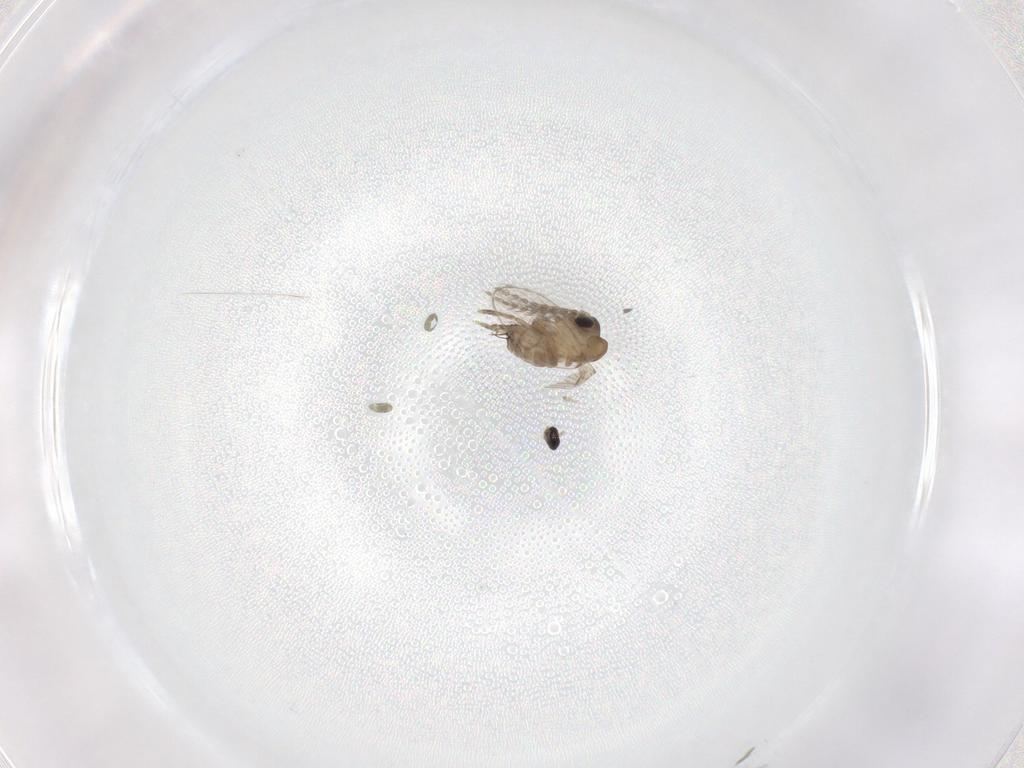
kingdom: Animalia
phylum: Arthropoda
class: Insecta
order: Diptera
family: Cecidomyiidae
